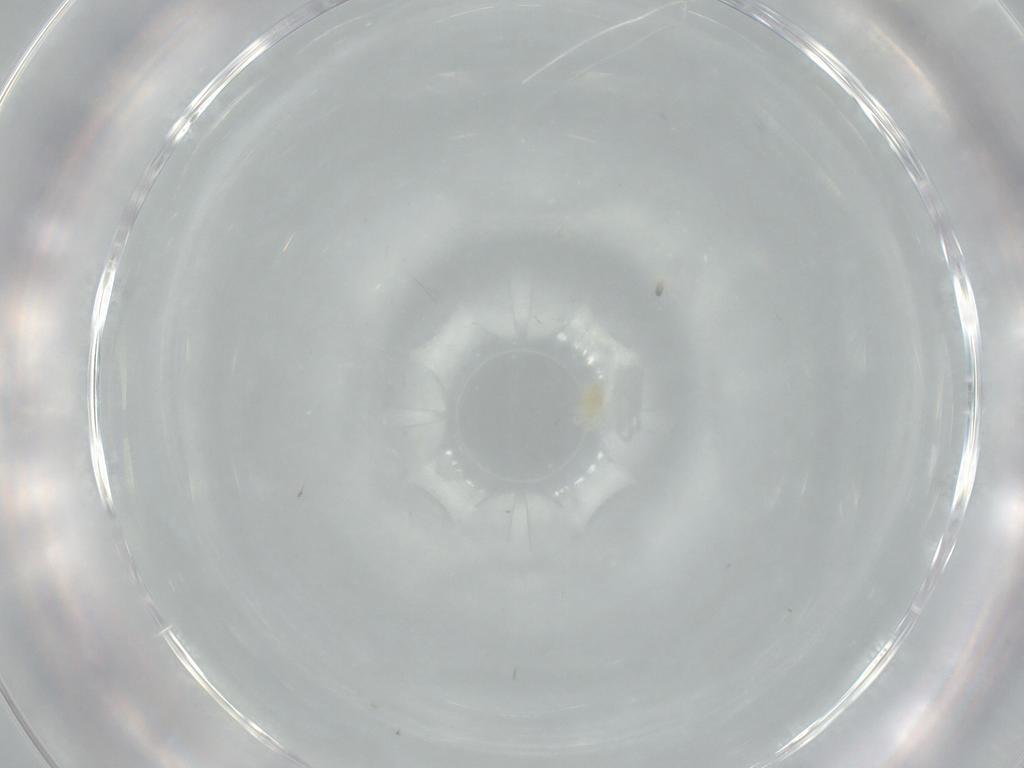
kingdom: Animalia
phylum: Arthropoda
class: Arachnida
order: Trombidiformes
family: Tetranychidae
